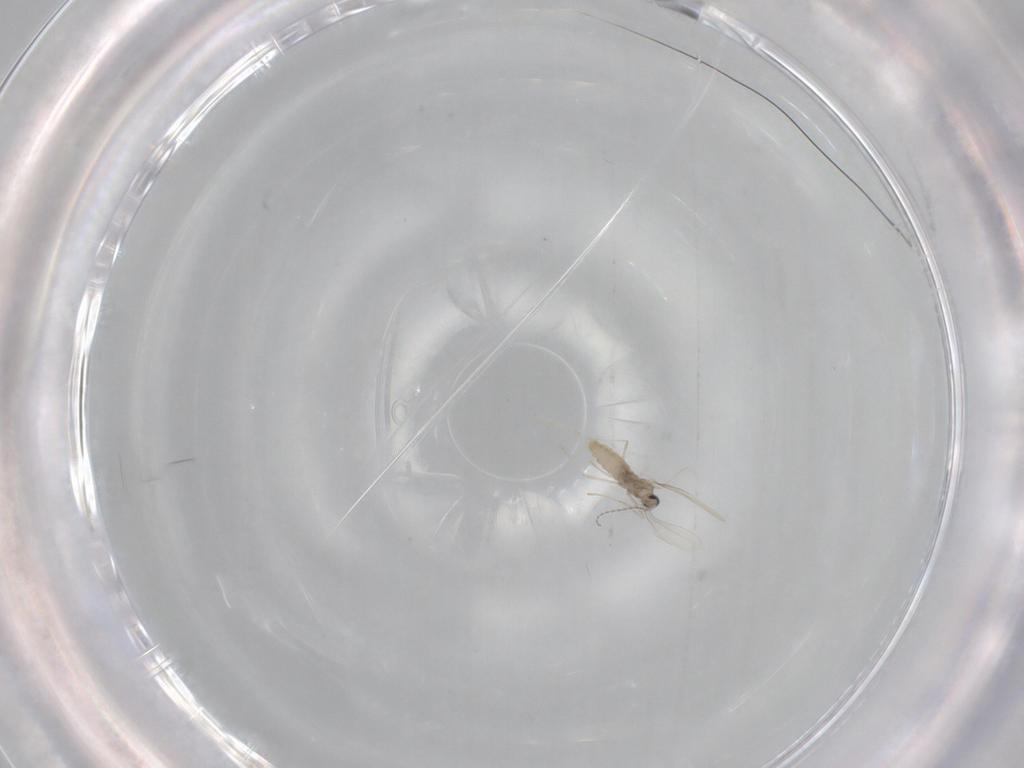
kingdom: Animalia
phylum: Arthropoda
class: Insecta
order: Diptera
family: Cecidomyiidae
